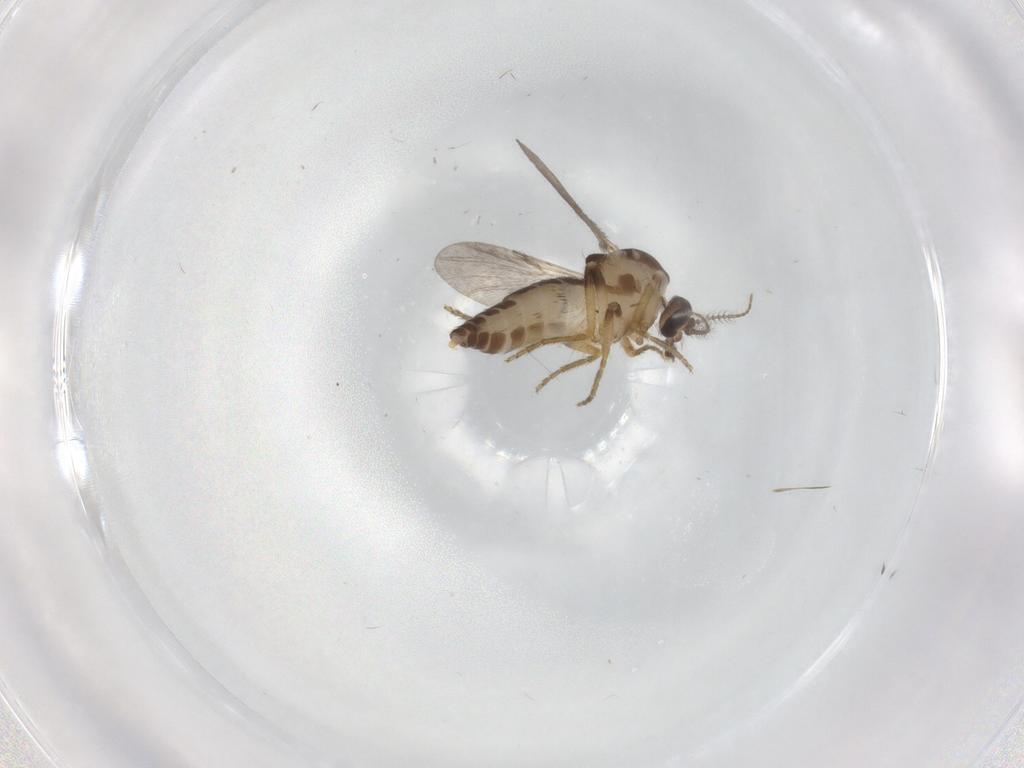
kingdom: Animalia
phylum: Arthropoda
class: Insecta
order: Diptera
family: Ceratopogonidae
